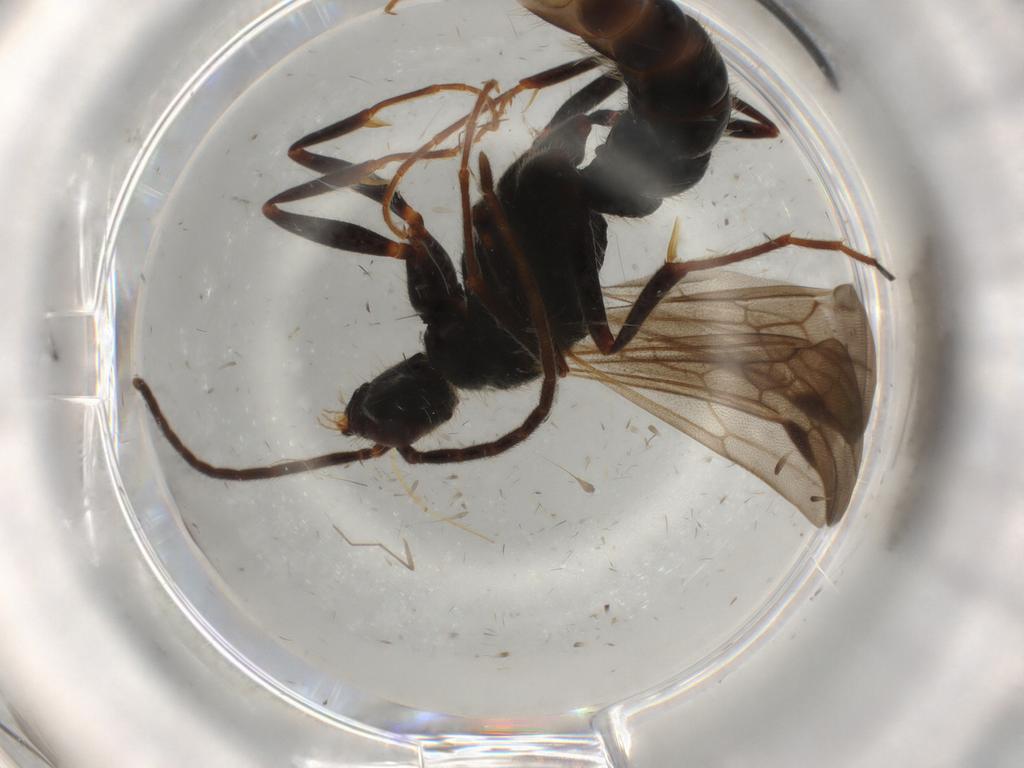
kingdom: Animalia
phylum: Arthropoda
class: Insecta
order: Hymenoptera
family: Formicidae
